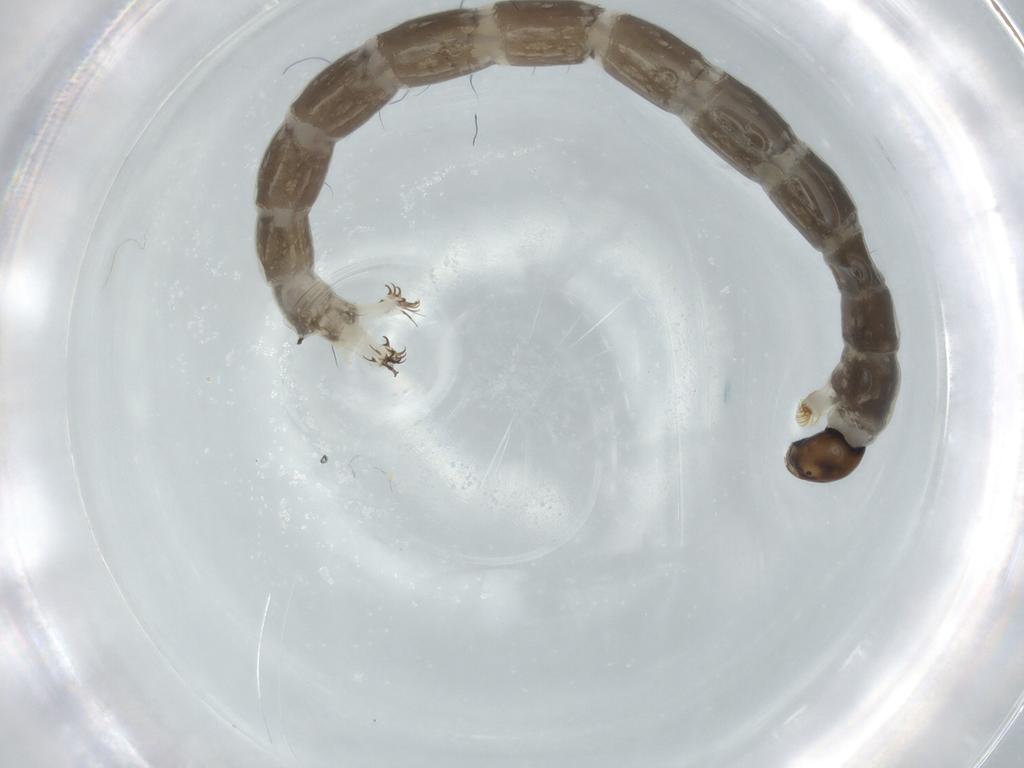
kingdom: Animalia
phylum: Arthropoda
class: Insecta
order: Diptera
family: Chironomidae
